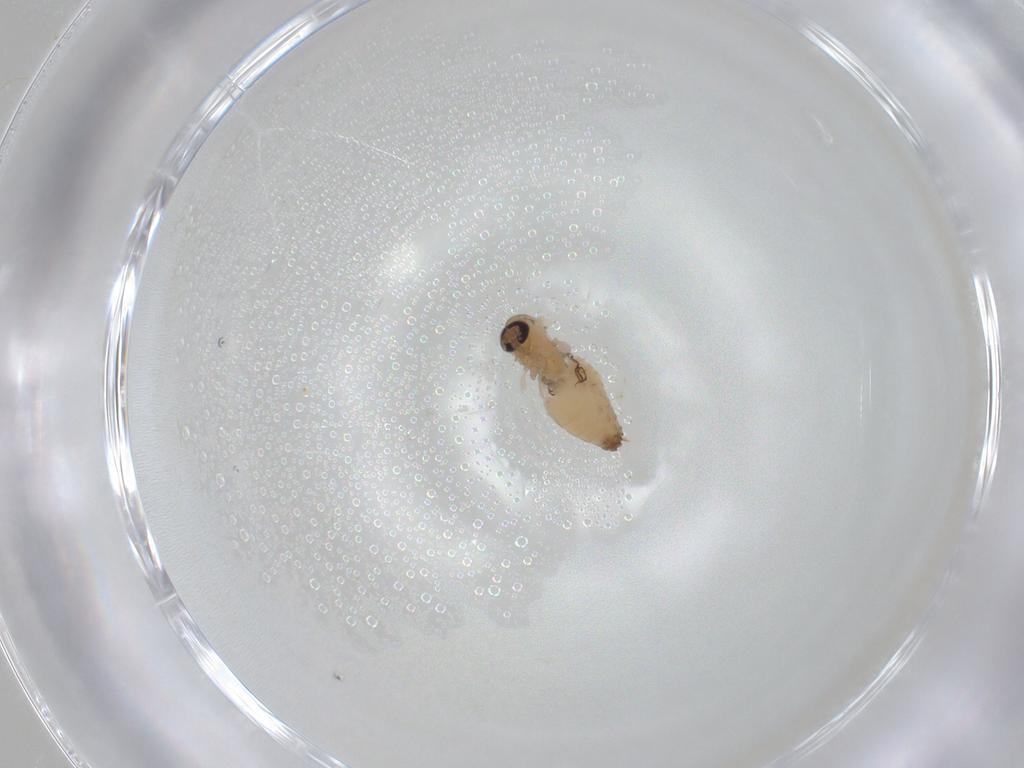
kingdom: Animalia
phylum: Arthropoda
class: Insecta
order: Diptera
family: Psychodidae
